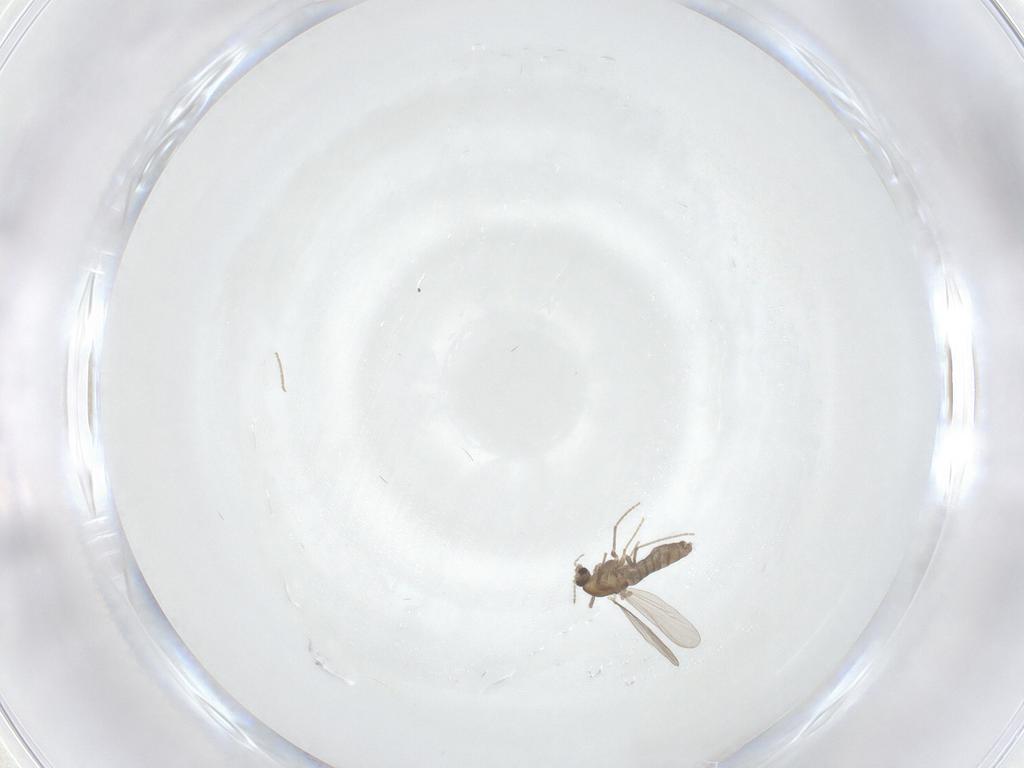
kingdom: Animalia
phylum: Arthropoda
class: Insecta
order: Diptera
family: Chironomidae
